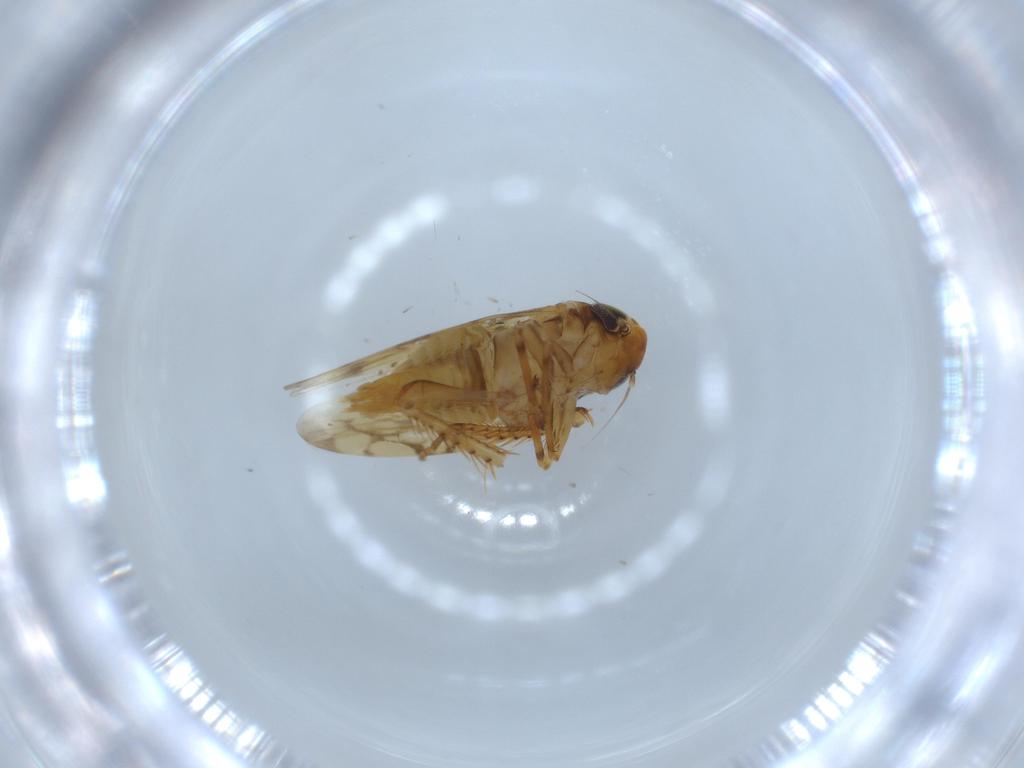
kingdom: Animalia
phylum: Arthropoda
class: Insecta
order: Hemiptera
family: Cicadellidae
